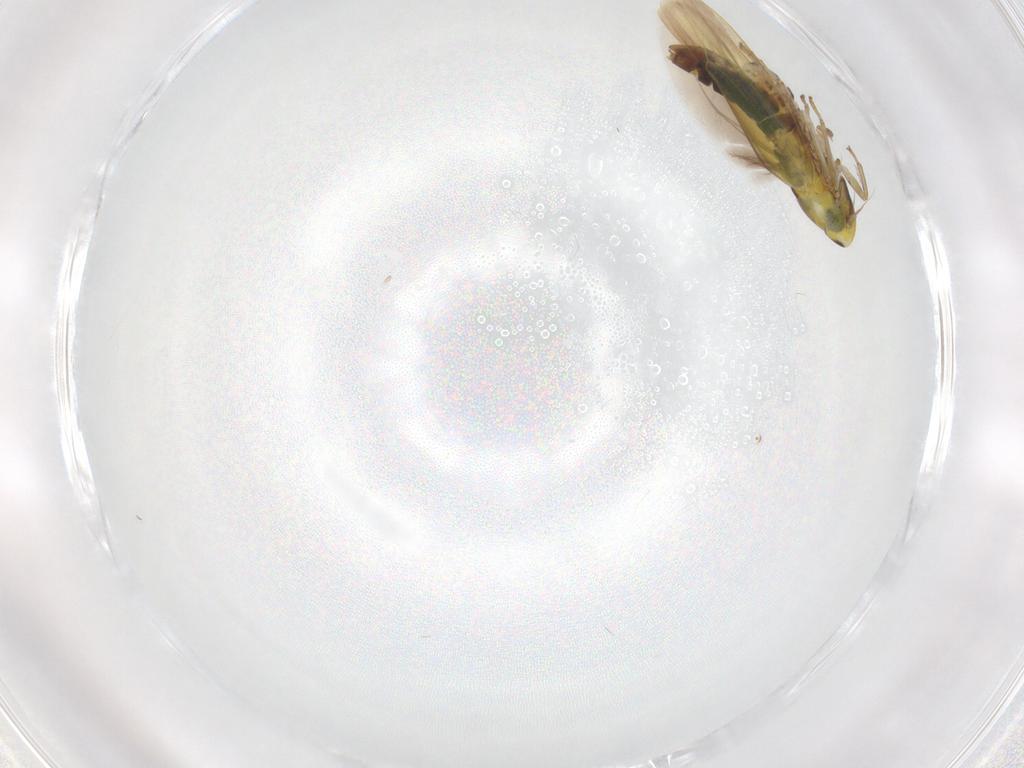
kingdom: Animalia
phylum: Arthropoda
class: Insecta
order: Hemiptera
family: Cicadellidae
